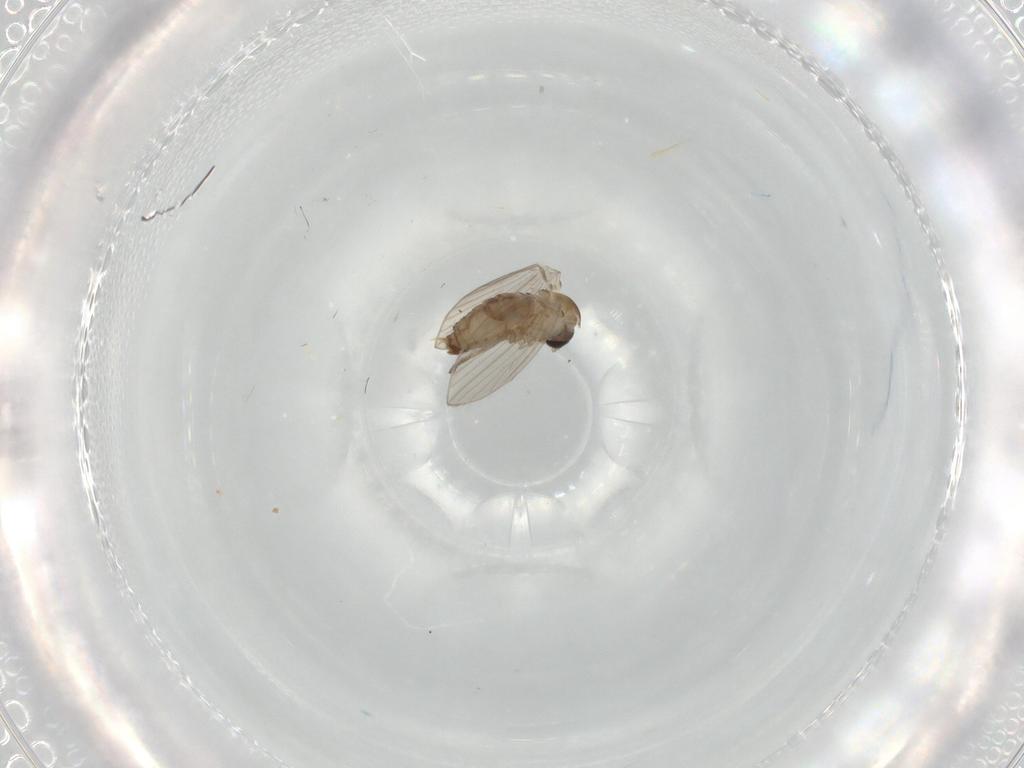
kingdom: Animalia
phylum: Arthropoda
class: Insecta
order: Diptera
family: Psychodidae
